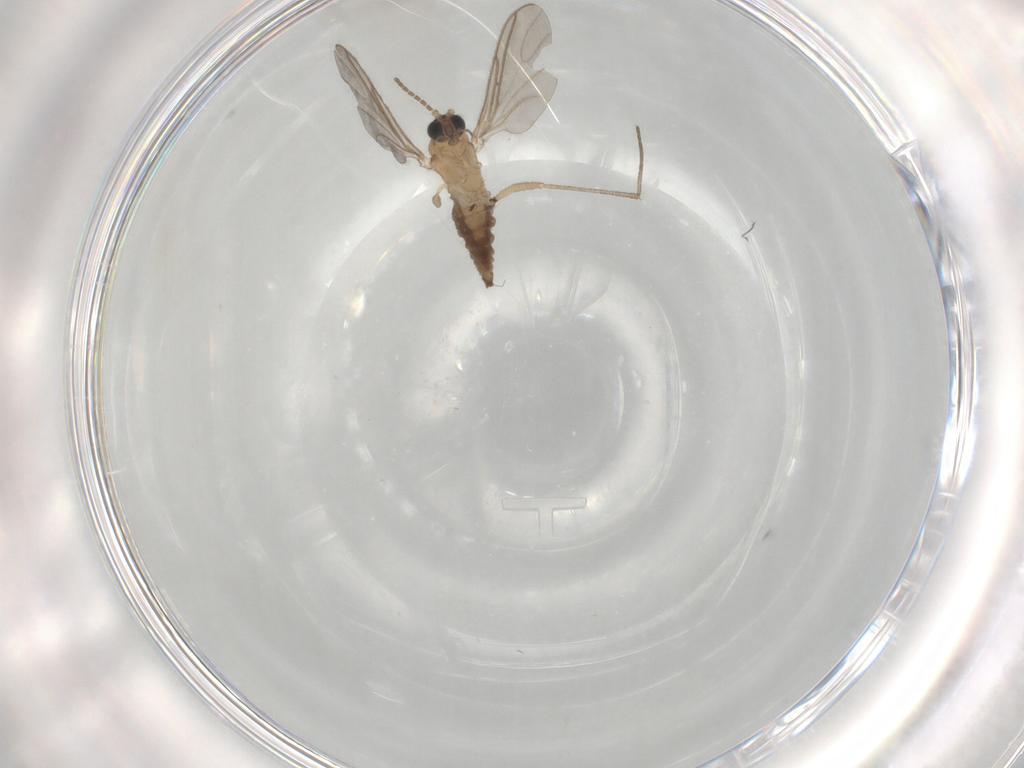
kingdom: Animalia
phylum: Arthropoda
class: Insecta
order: Diptera
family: Sciaridae
